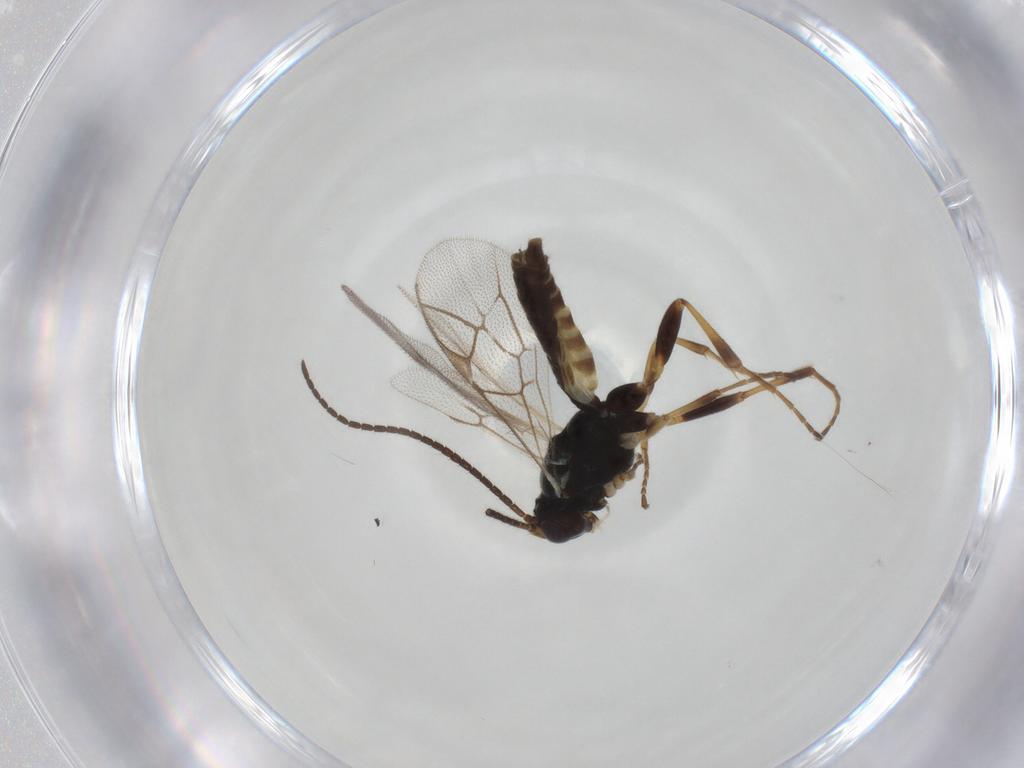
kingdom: Animalia
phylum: Arthropoda
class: Insecta
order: Hymenoptera
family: Ichneumonidae
